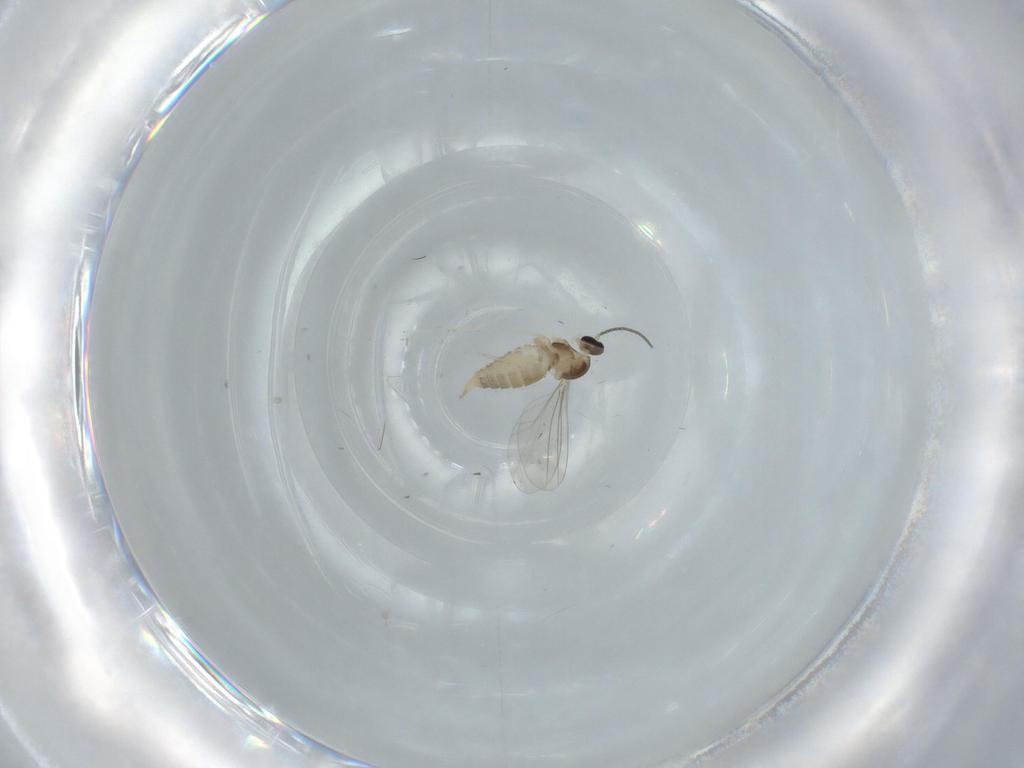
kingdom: Animalia
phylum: Arthropoda
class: Insecta
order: Diptera
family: Cecidomyiidae
